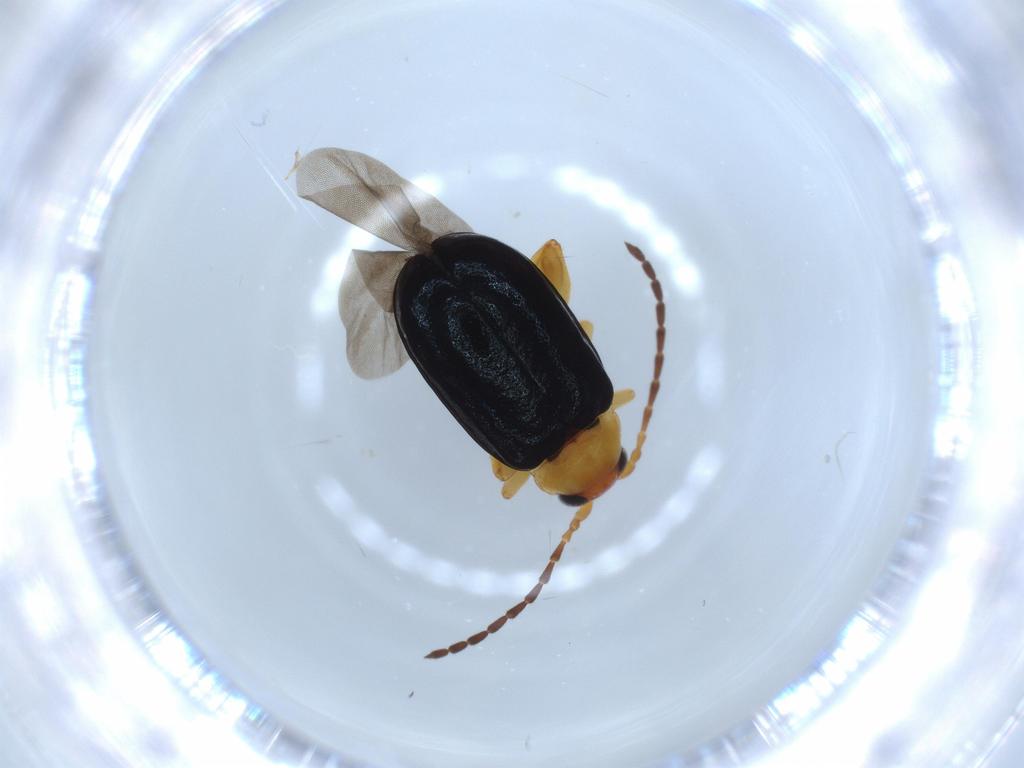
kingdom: Animalia
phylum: Arthropoda
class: Insecta
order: Coleoptera
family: Chrysomelidae
